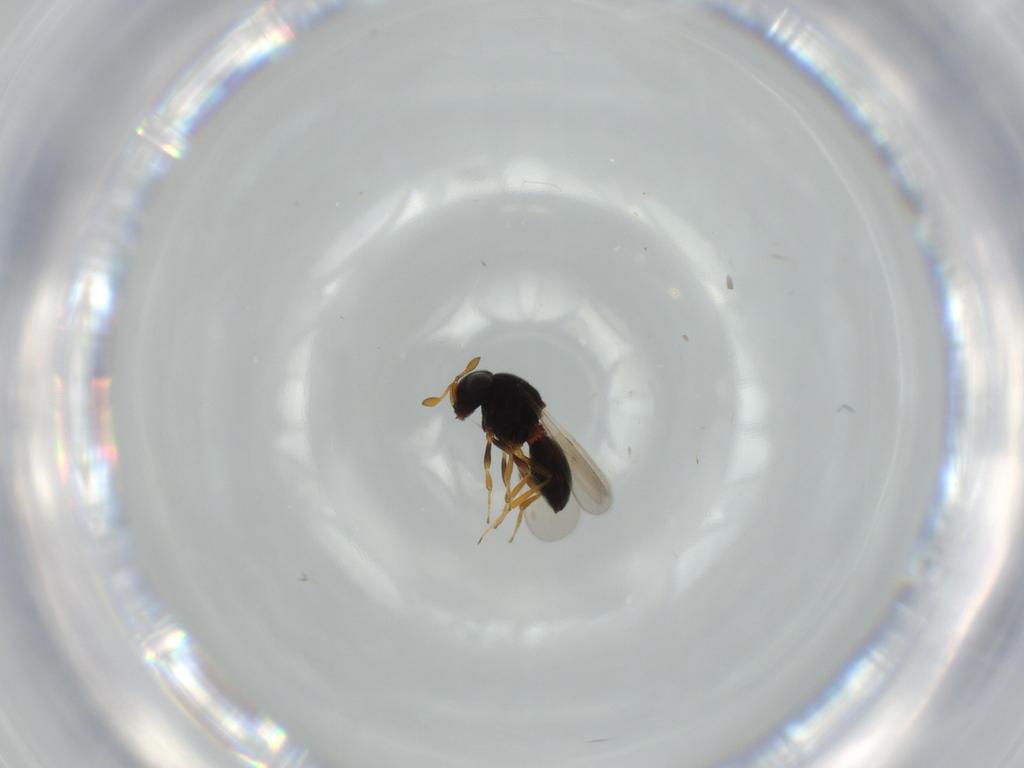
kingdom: Animalia
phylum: Arthropoda
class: Insecta
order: Hymenoptera
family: Scelionidae
